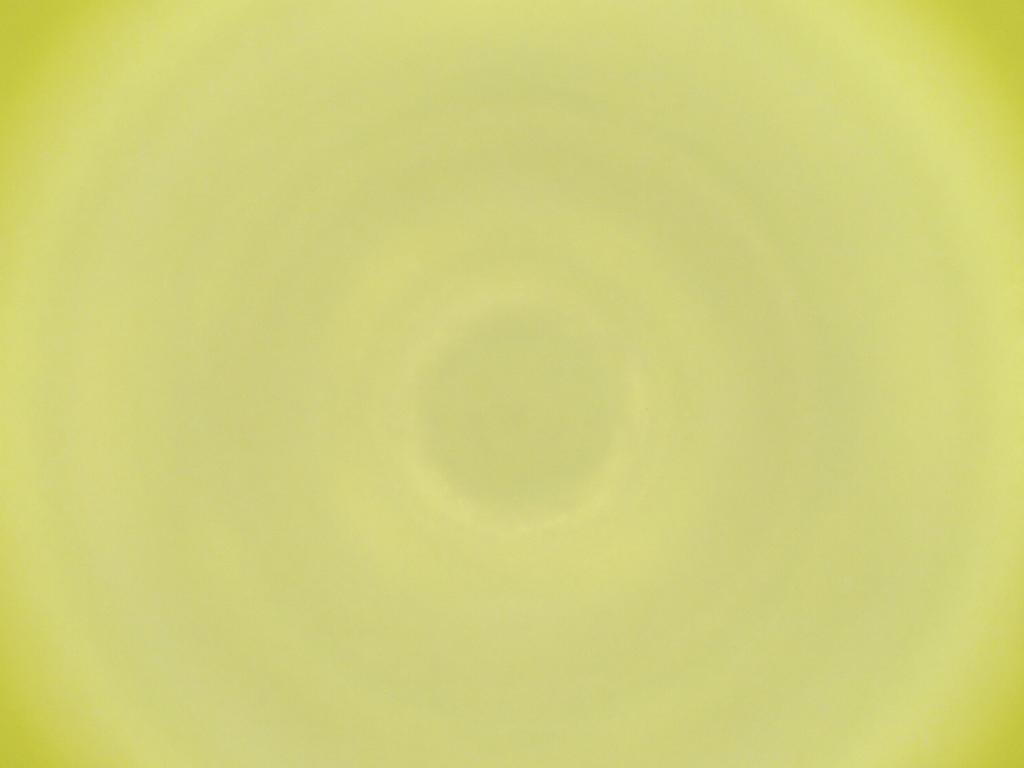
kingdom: Animalia
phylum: Arthropoda
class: Insecta
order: Diptera
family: Cecidomyiidae
